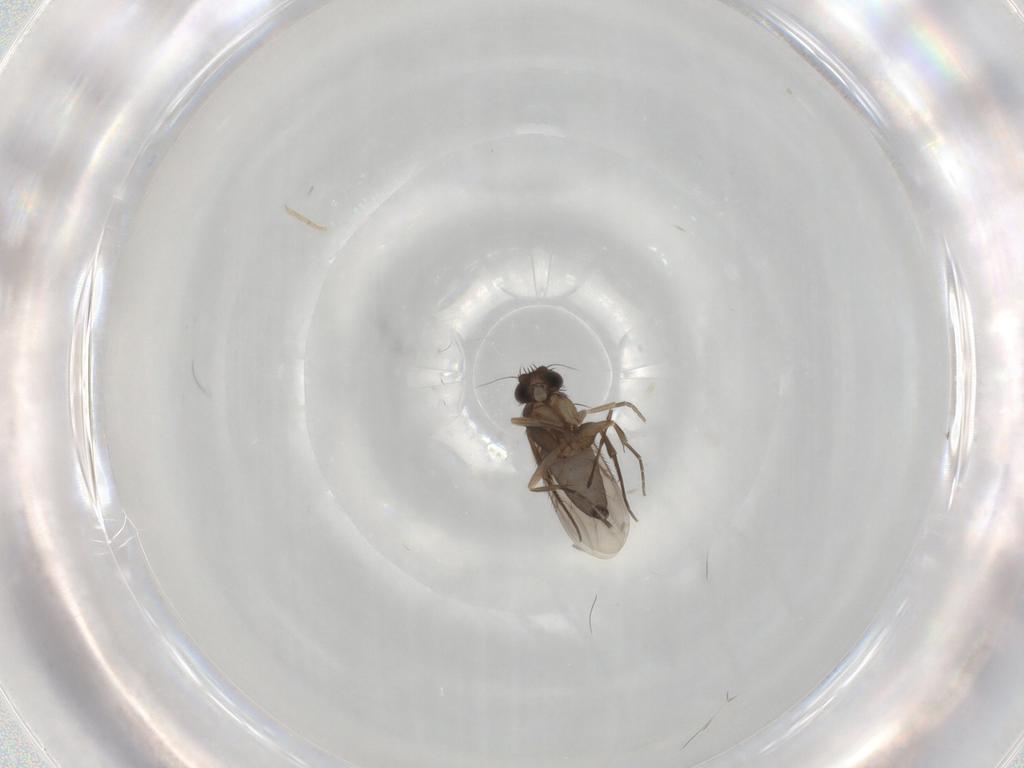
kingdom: Animalia
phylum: Arthropoda
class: Insecta
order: Diptera
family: Phoridae
